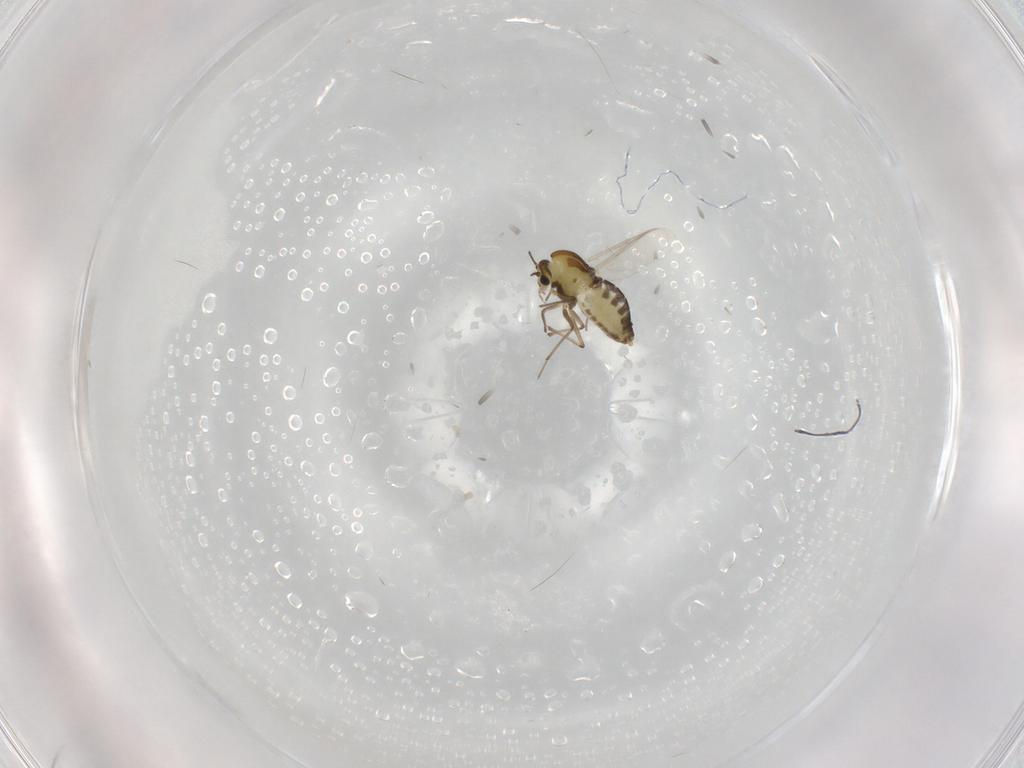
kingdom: Animalia
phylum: Arthropoda
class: Insecta
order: Diptera
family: Chironomidae
